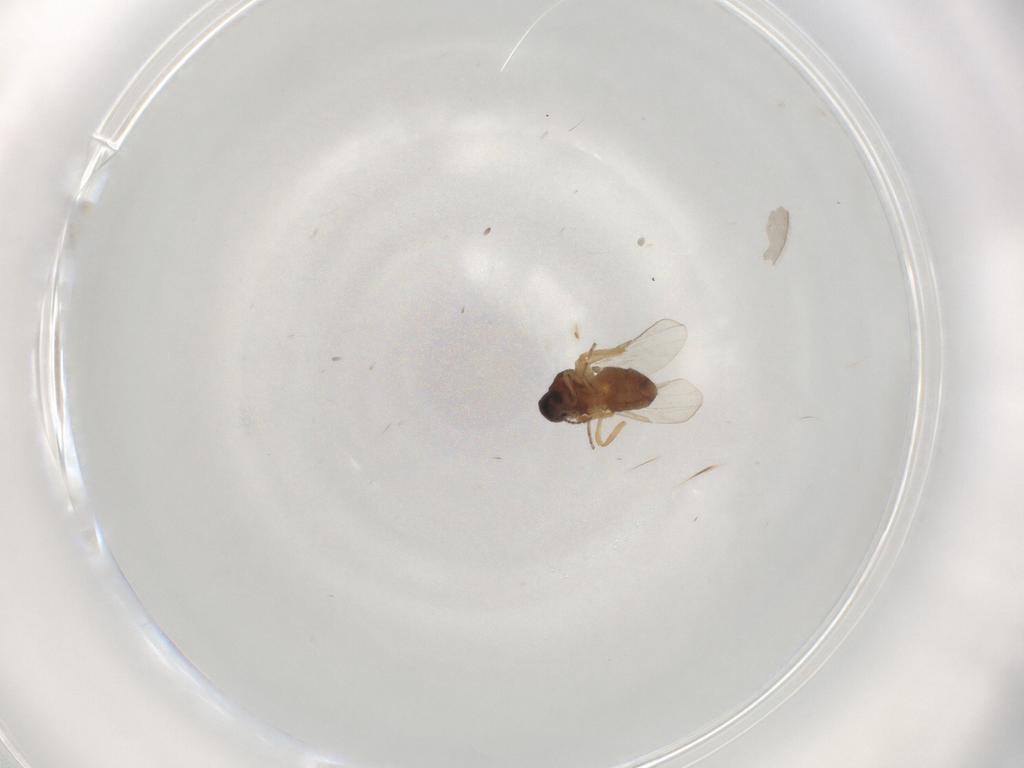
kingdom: Animalia
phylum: Arthropoda
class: Insecta
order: Diptera
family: Ceratopogonidae
